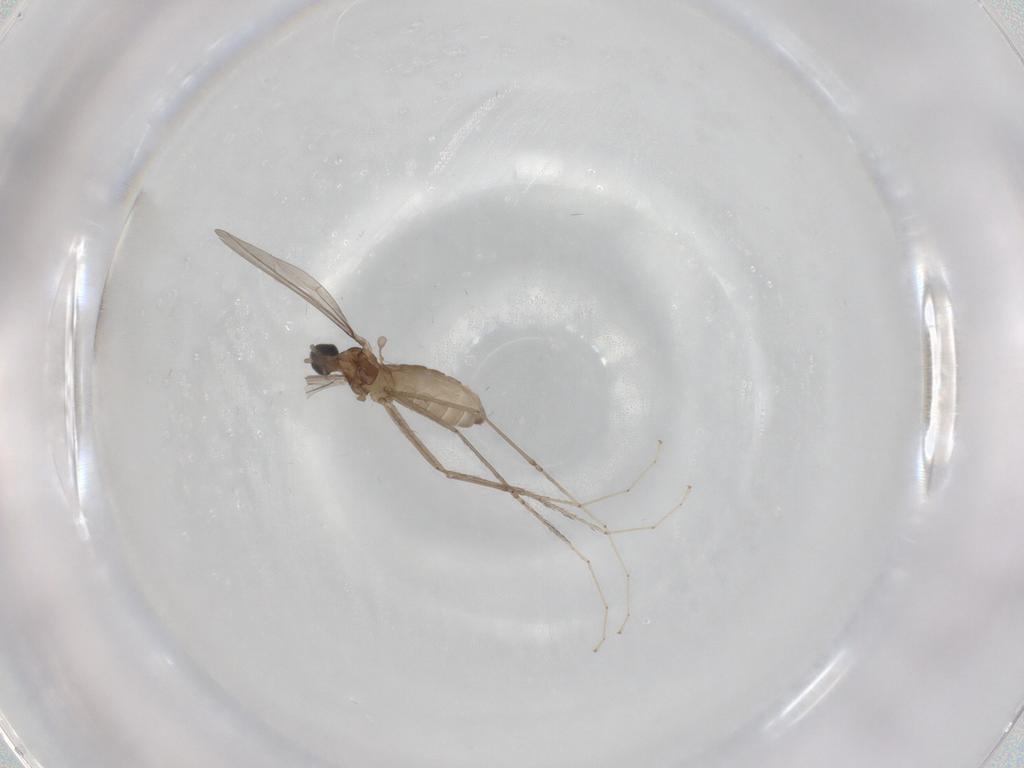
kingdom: Animalia
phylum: Arthropoda
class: Insecta
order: Diptera
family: Cecidomyiidae
